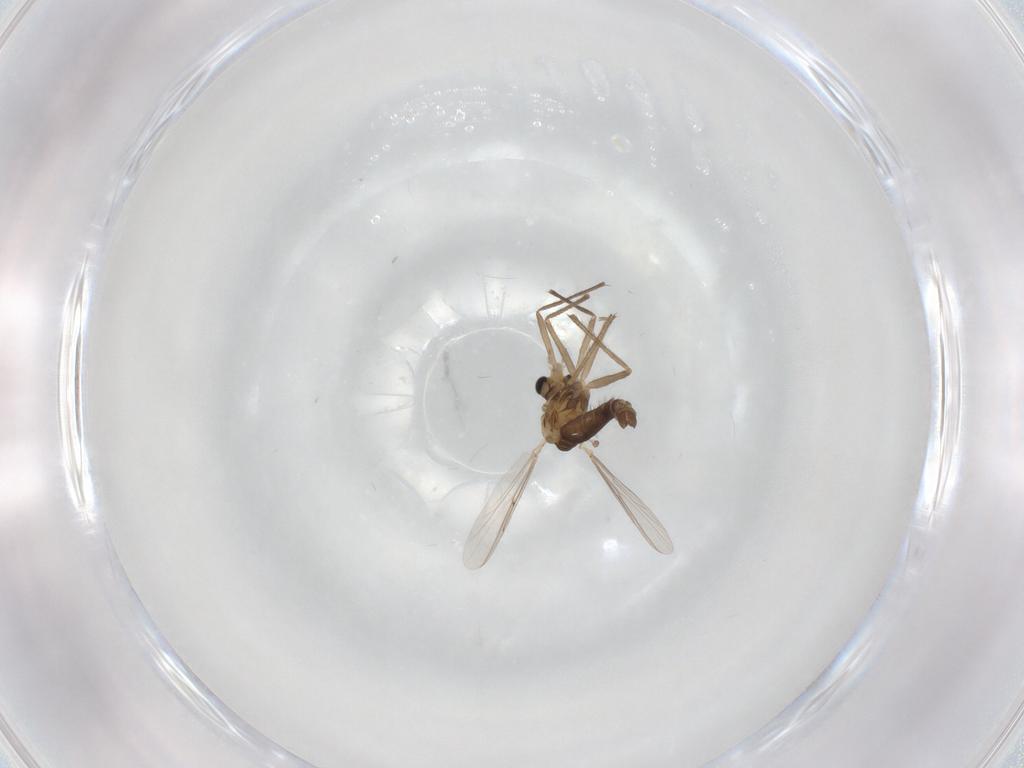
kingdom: Animalia
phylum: Arthropoda
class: Insecta
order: Diptera
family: Chironomidae
